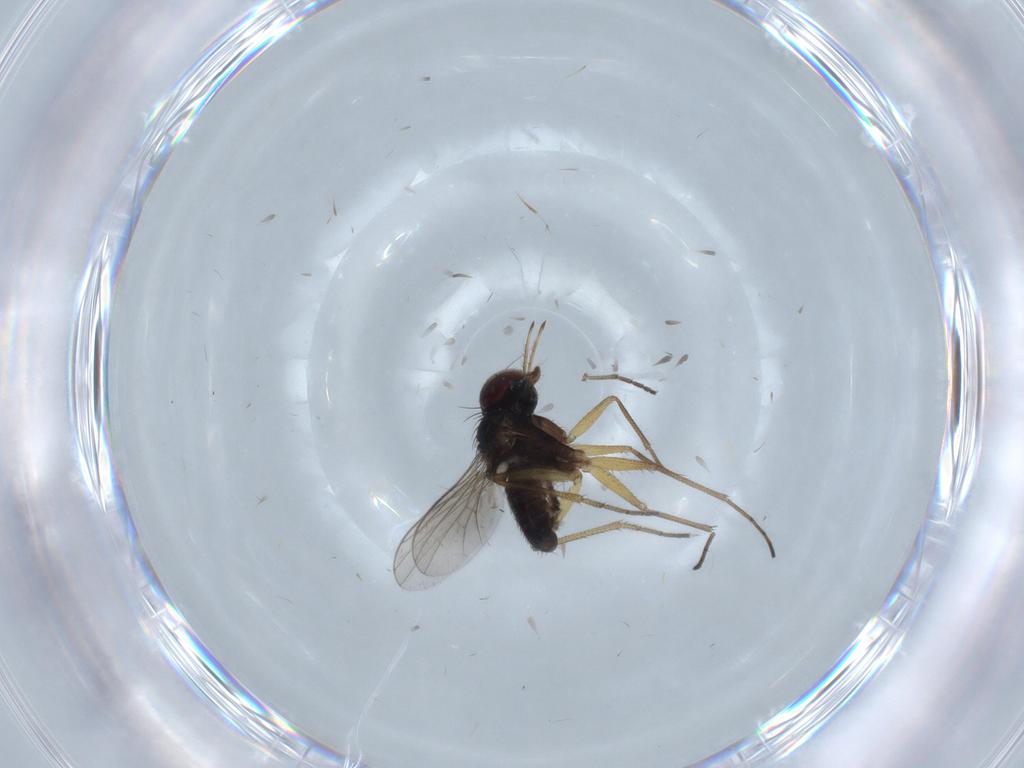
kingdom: Animalia
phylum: Arthropoda
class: Insecta
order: Diptera
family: Dolichopodidae
